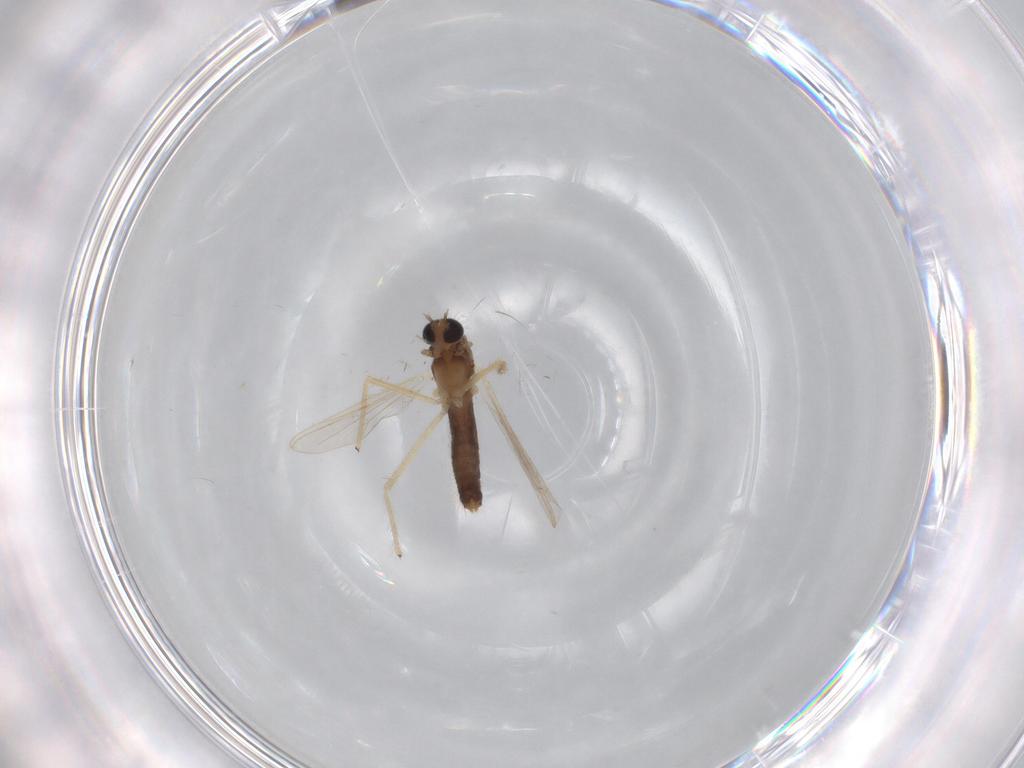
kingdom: Animalia
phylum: Arthropoda
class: Insecta
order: Diptera
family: Chironomidae
